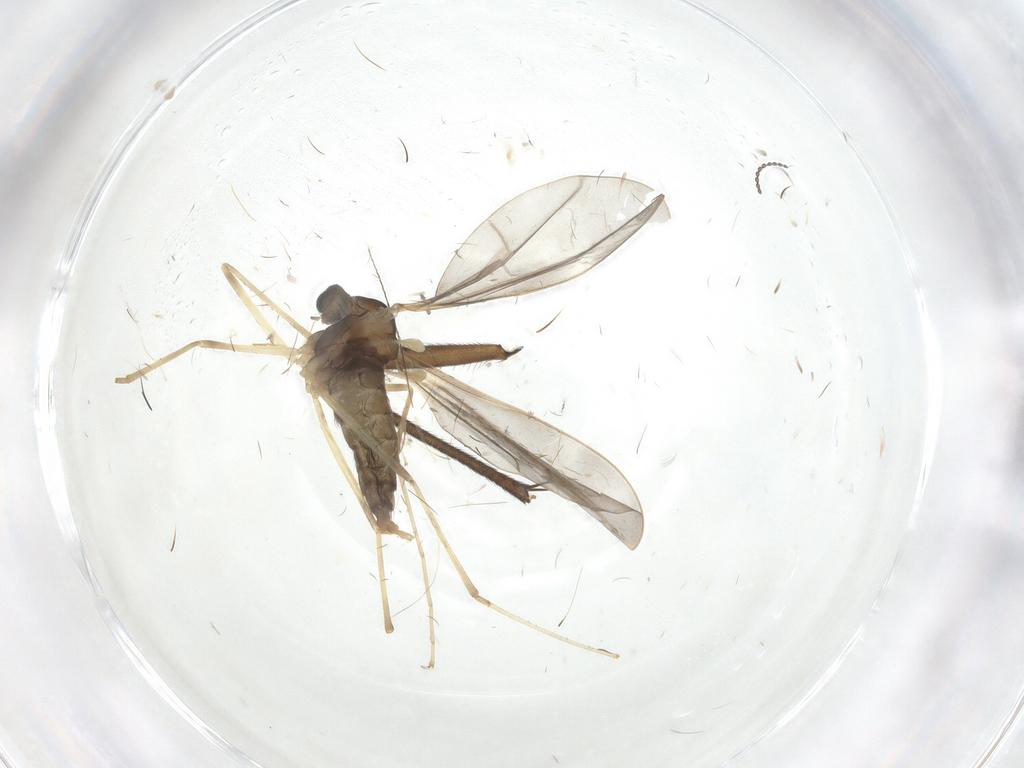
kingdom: Animalia
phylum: Arthropoda
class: Insecta
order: Diptera
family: Cecidomyiidae
